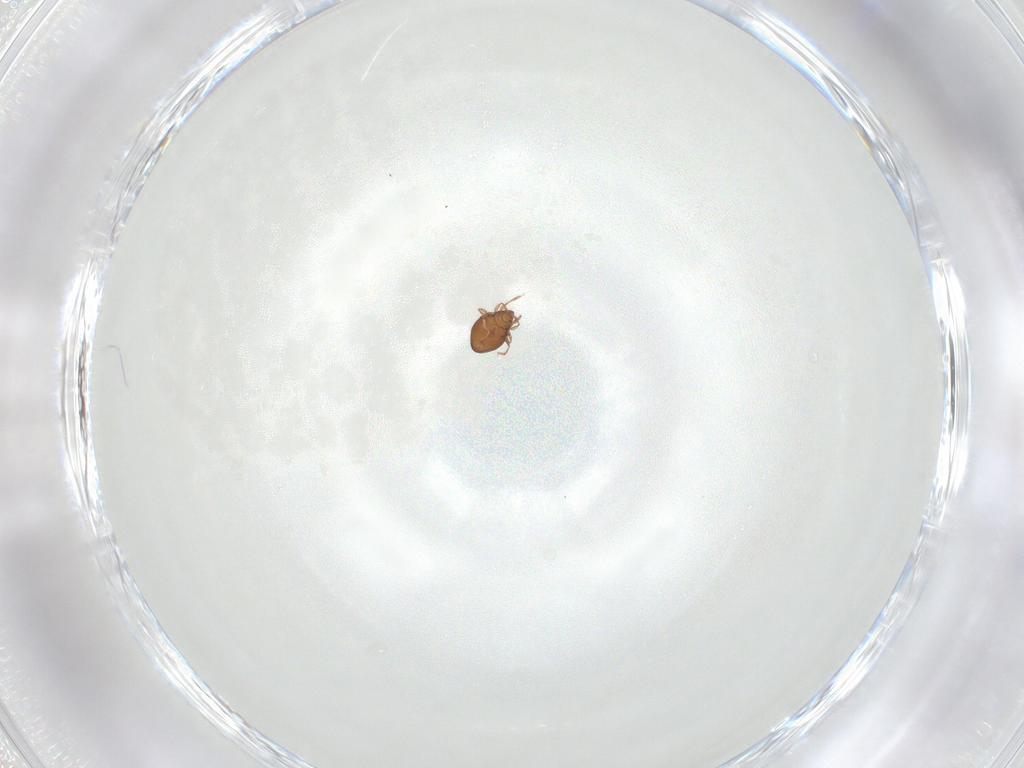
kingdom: Animalia
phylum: Arthropoda
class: Arachnida
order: Sarcoptiformes
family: Oribatulidae
